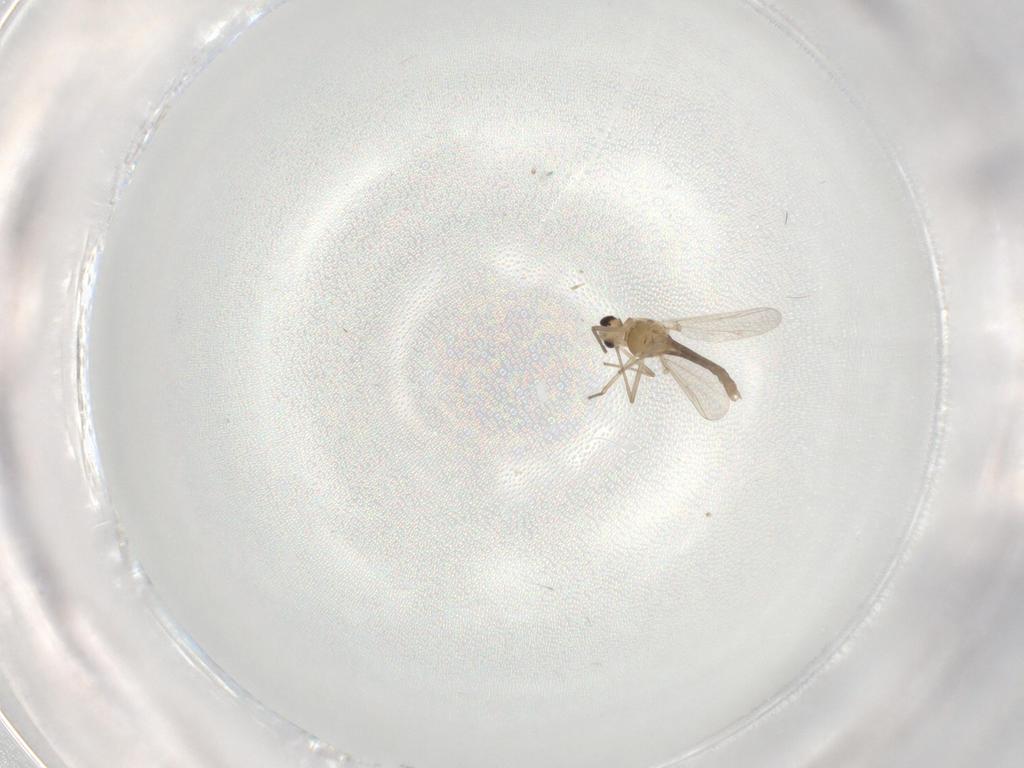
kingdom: Animalia
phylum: Arthropoda
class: Insecta
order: Diptera
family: Chironomidae
